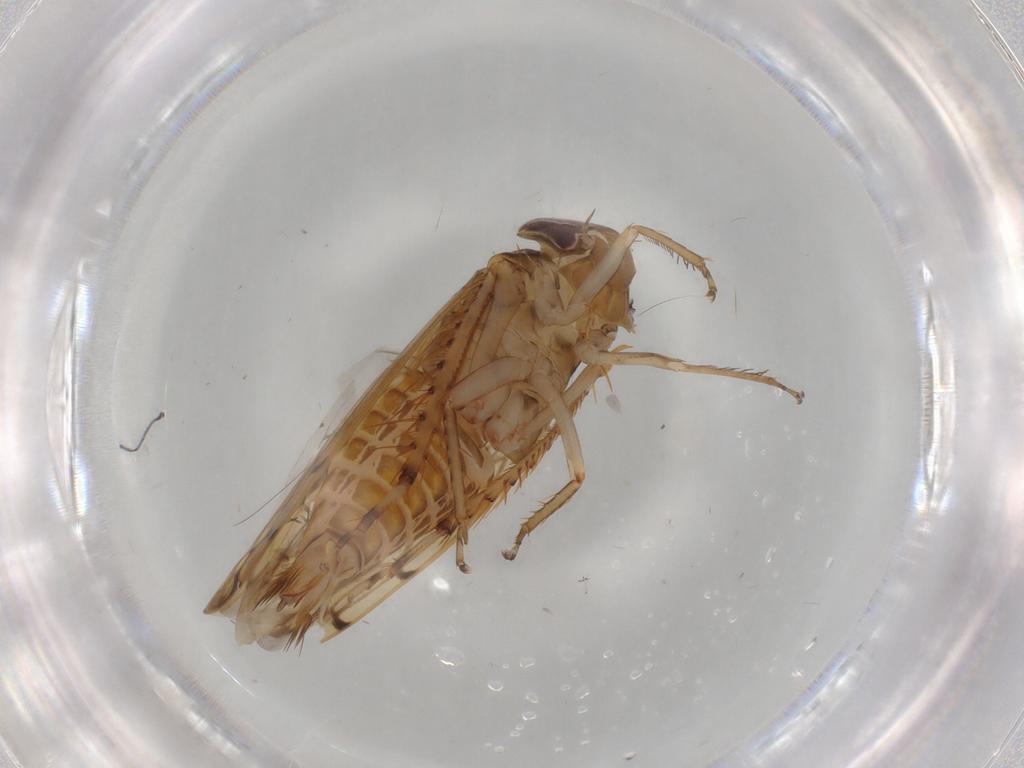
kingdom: Animalia
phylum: Arthropoda
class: Insecta
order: Hemiptera
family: Cicadellidae
